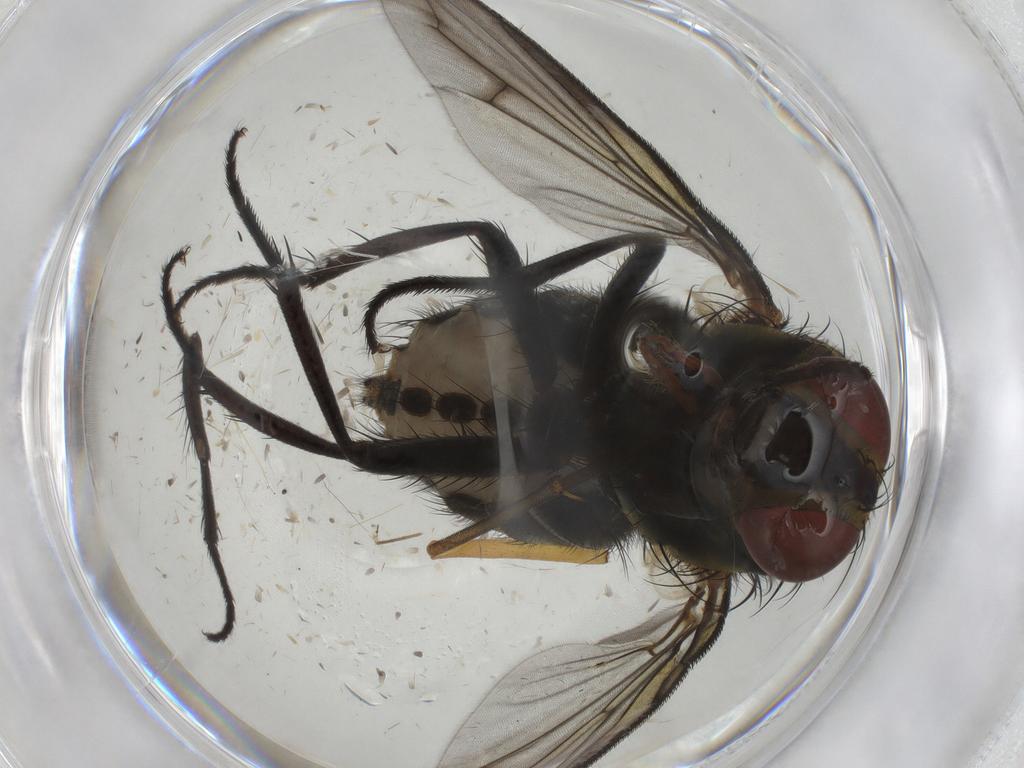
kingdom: Animalia
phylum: Arthropoda
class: Insecta
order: Diptera
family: Sarcophagidae
